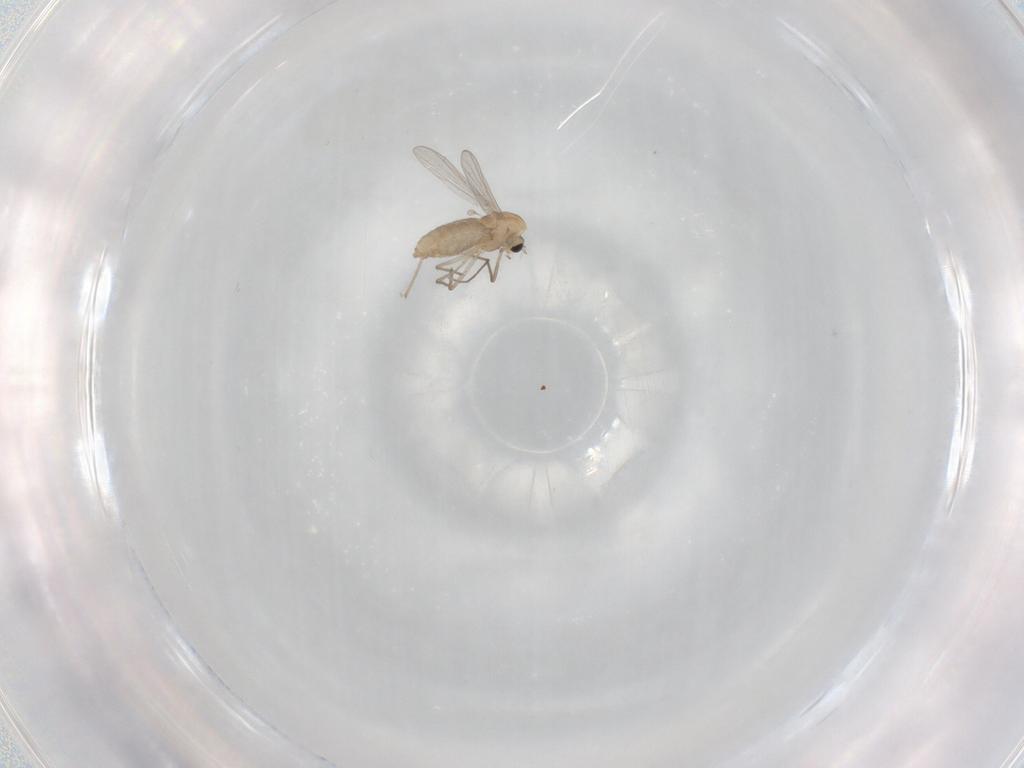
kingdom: Animalia
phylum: Arthropoda
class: Insecta
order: Diptera
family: Chironomidae
